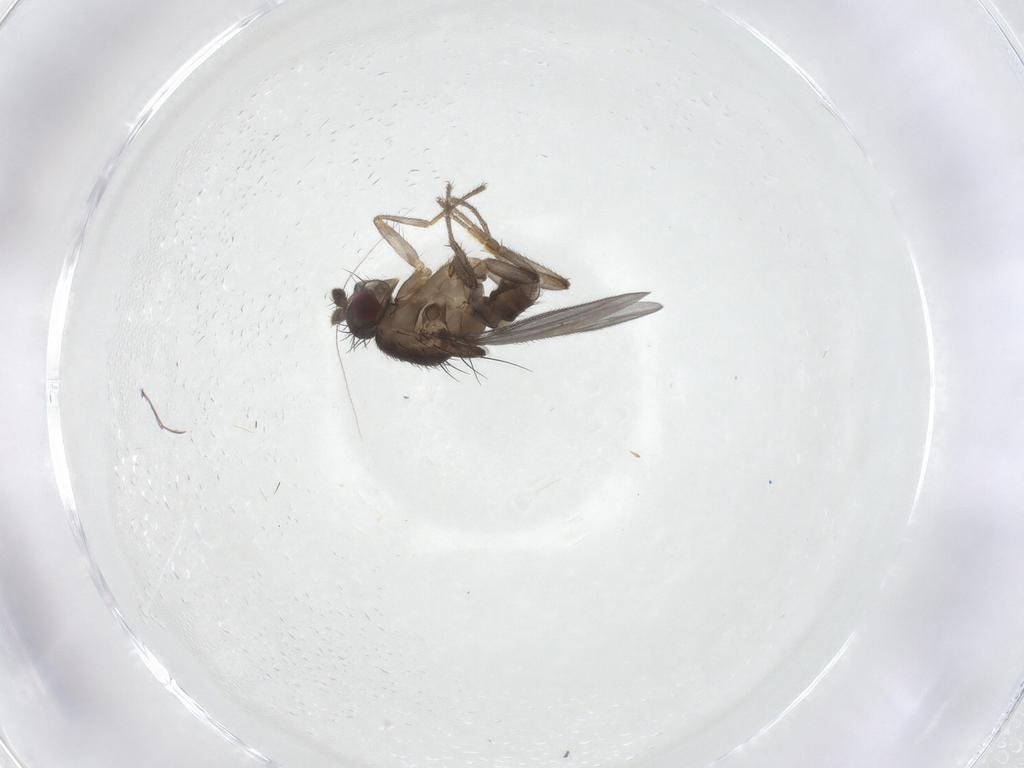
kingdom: Animalia
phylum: Arthropoda
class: Insecta
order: Diptera
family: Sphaeroceridae
